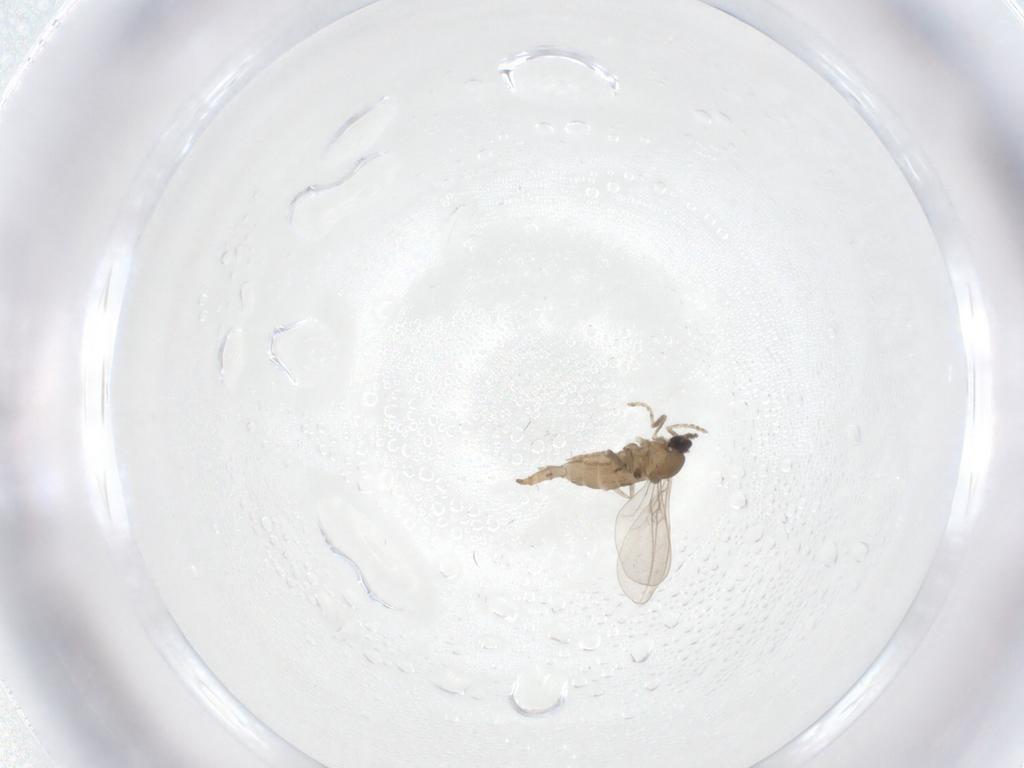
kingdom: Animalia
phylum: Arthropoda
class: Insecta
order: Diptera
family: Cecidomyiidae
